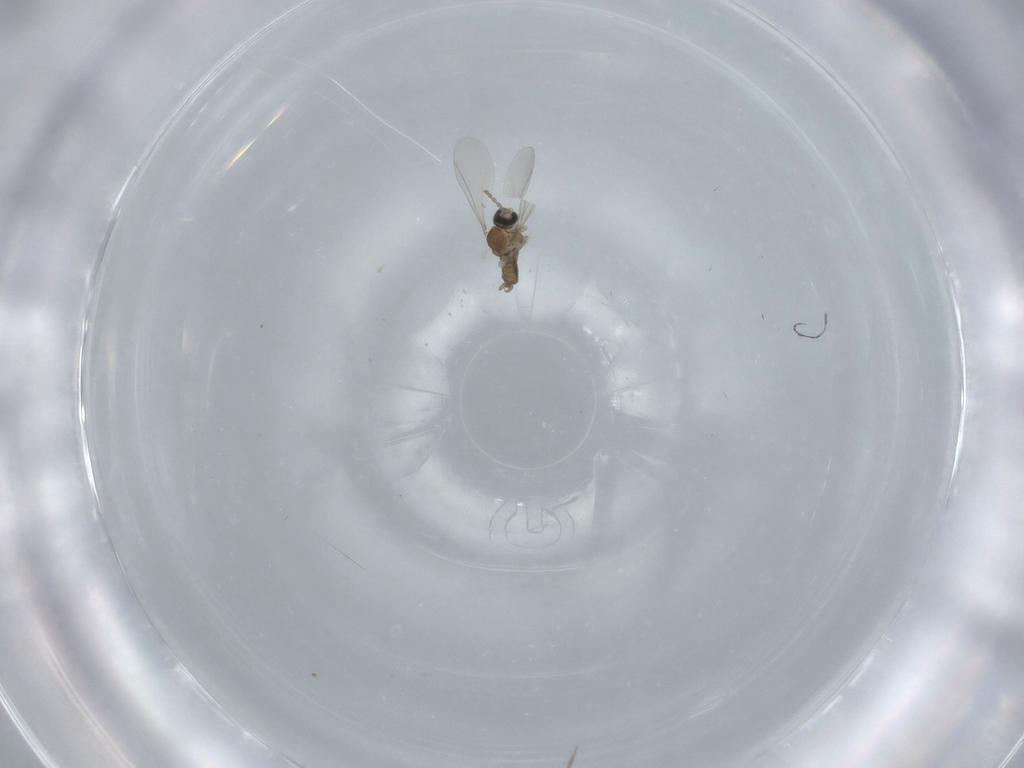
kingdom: Animalia
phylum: Arthropoda
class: Insecta
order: Diptera
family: Cecidomyiidae
